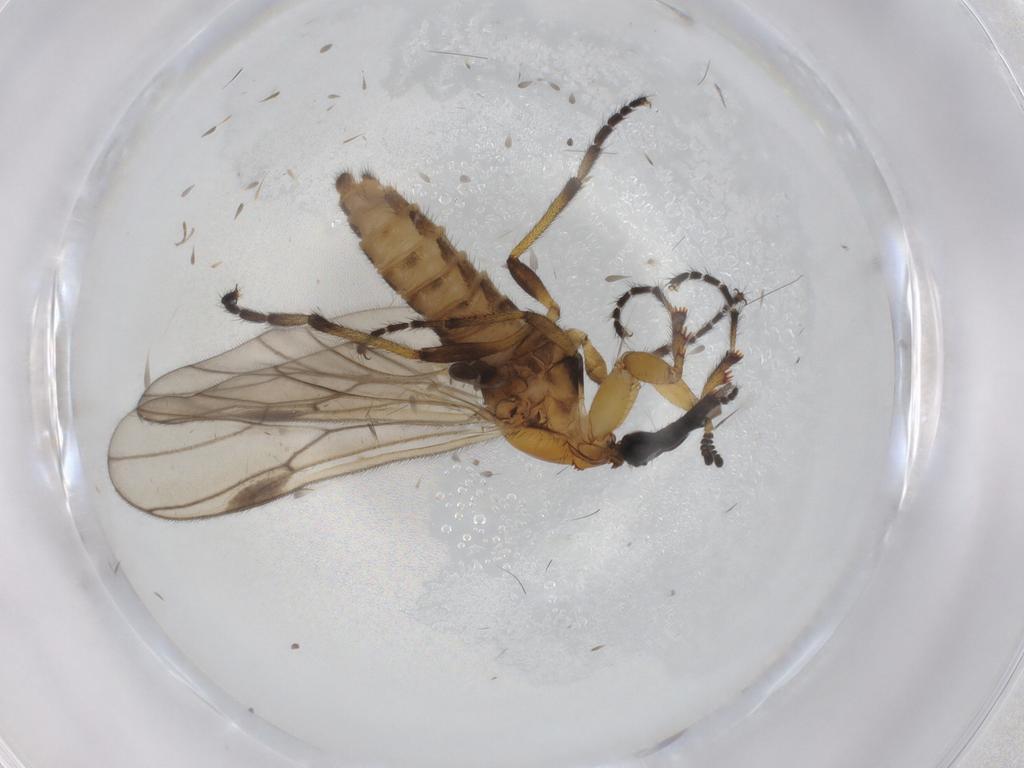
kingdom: Animalia
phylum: Arthropoda
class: Insecta
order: Diptera
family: Bibionidae
